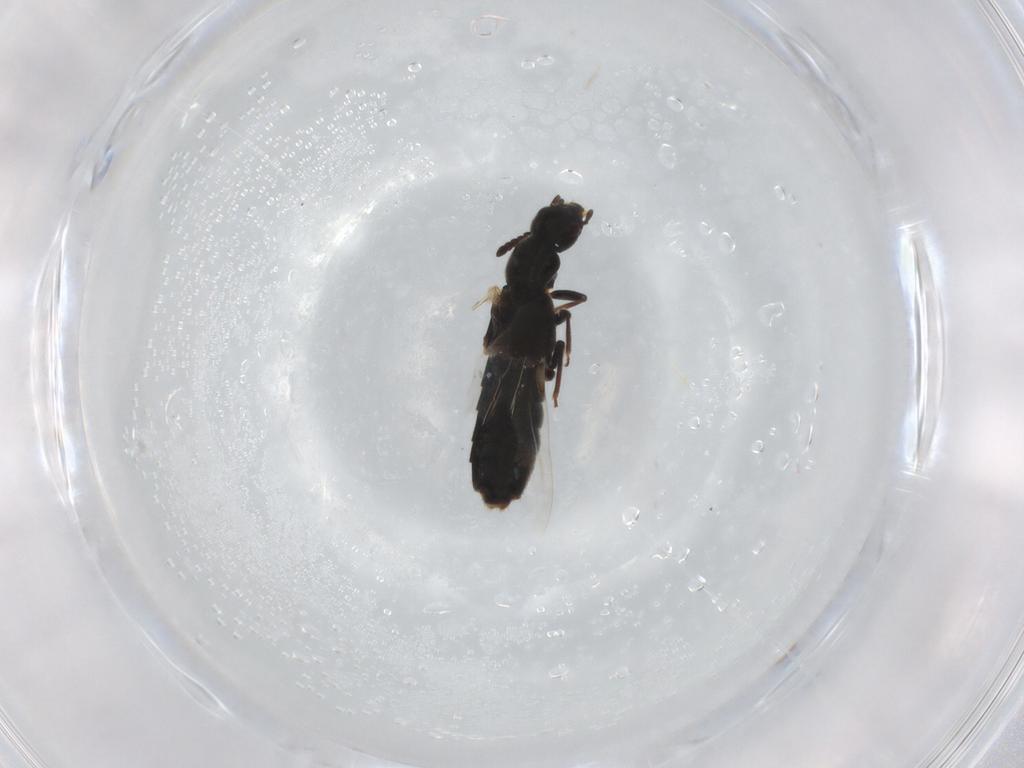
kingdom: Animalia
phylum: Arthropoda
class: Insecta
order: Coleoptera
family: Staphylinidae
